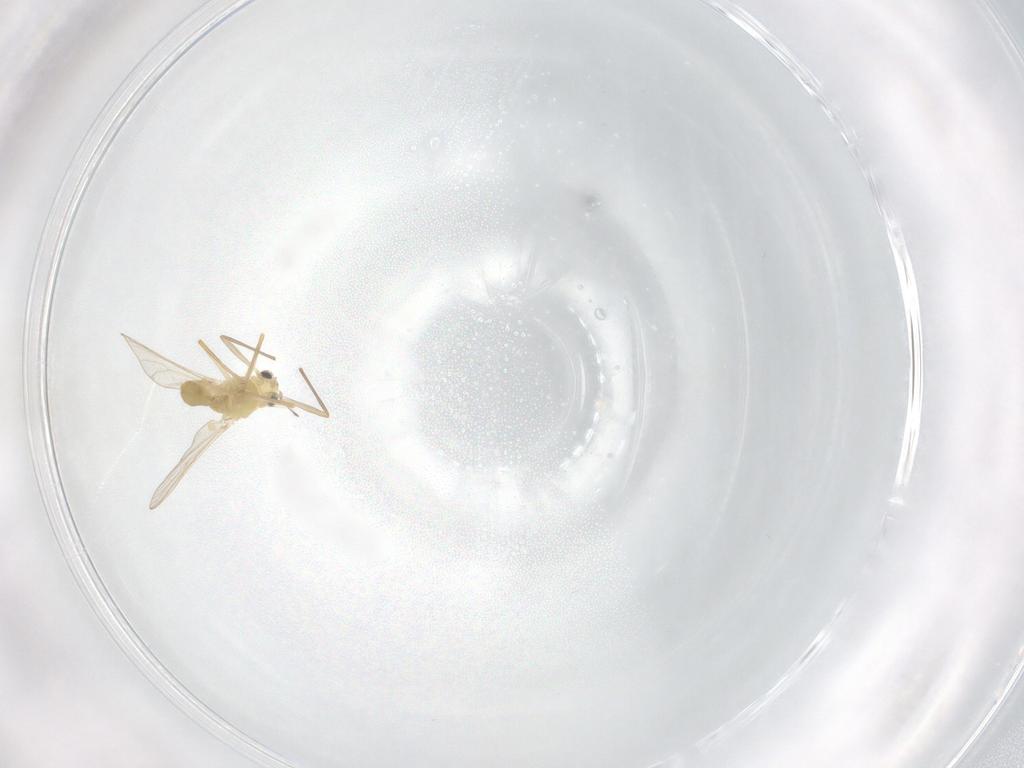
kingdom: Animalia
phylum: Arthropoda
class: Insecta
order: Diptera
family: Chironomidae
